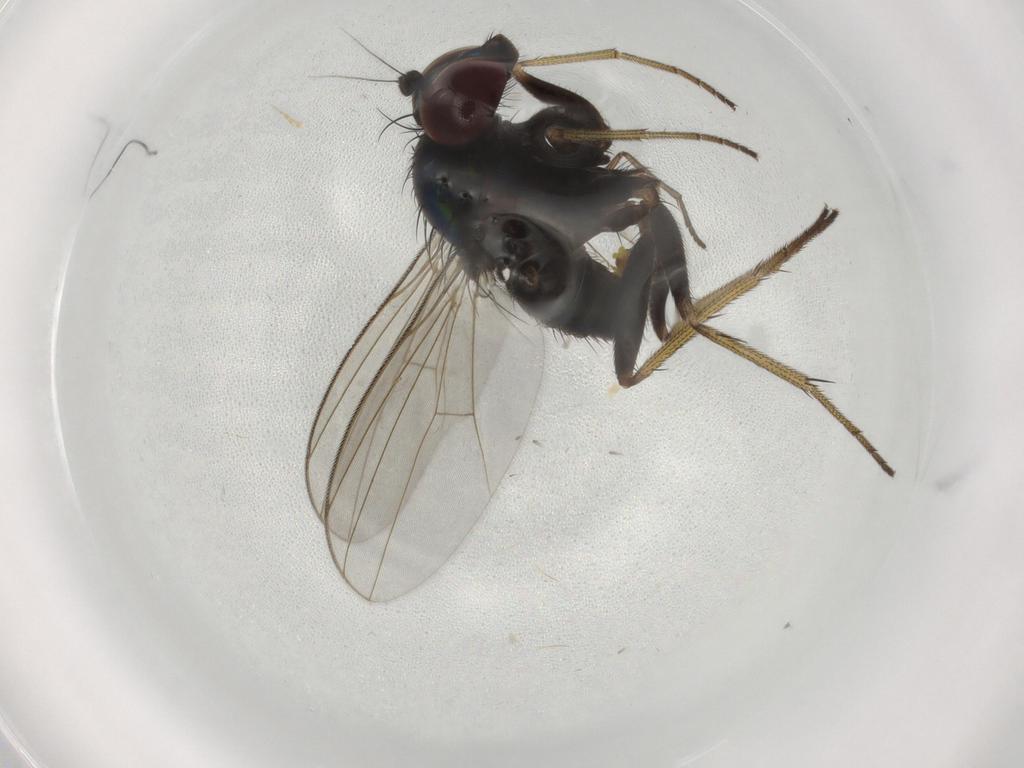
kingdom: Animalia
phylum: Arthropoda
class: Insecta
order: Diptera
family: Dolichopodidae
